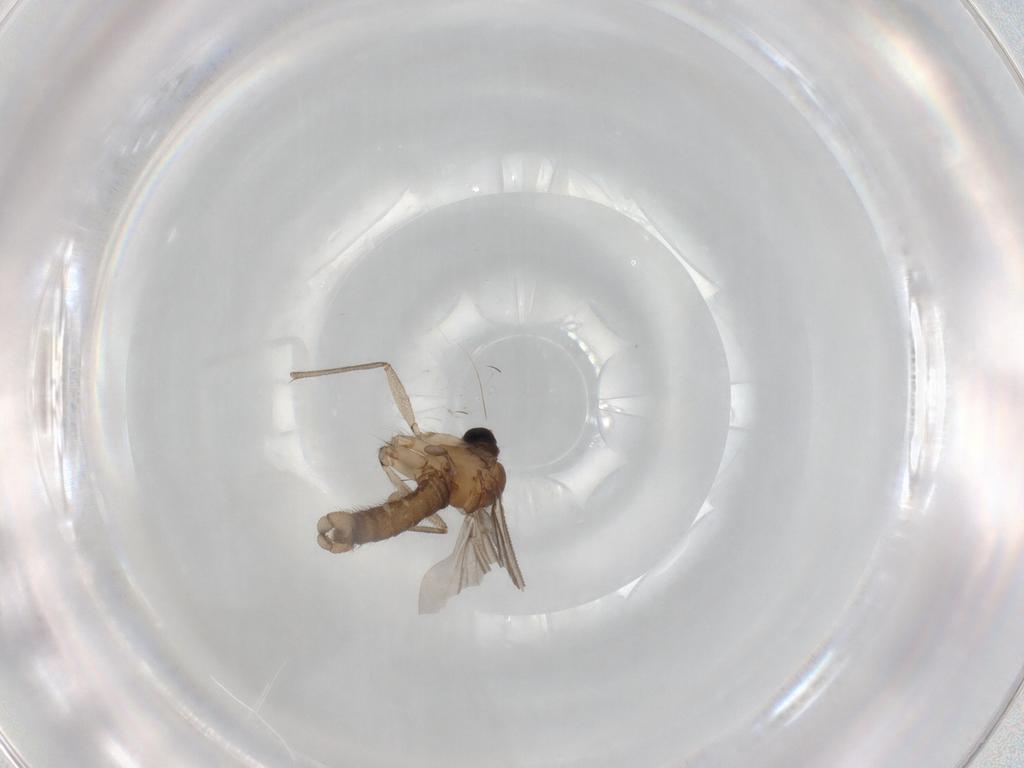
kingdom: Animalia
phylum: Arthropoda
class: Insecta
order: Diptera
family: Sciaridae
